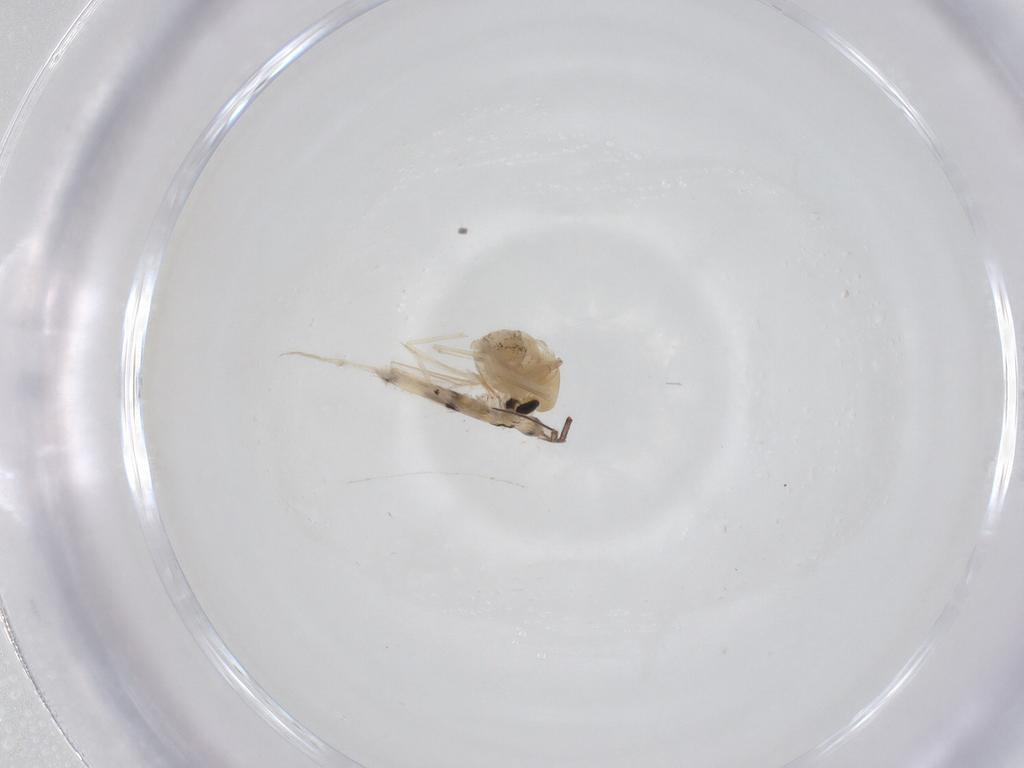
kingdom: Animalia
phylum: Arthropoda
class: Insecta
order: Diptera
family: Chironomidae
